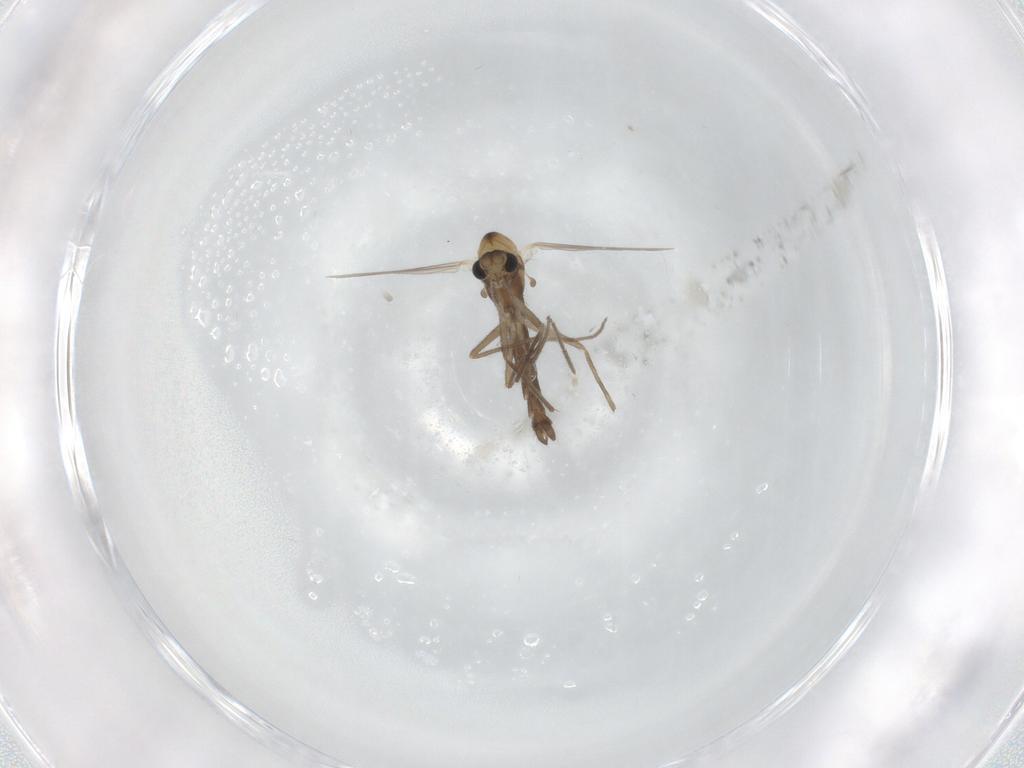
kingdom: Animalia
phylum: Arthropoda
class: Insecta
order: Diptera
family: Chironomidae
